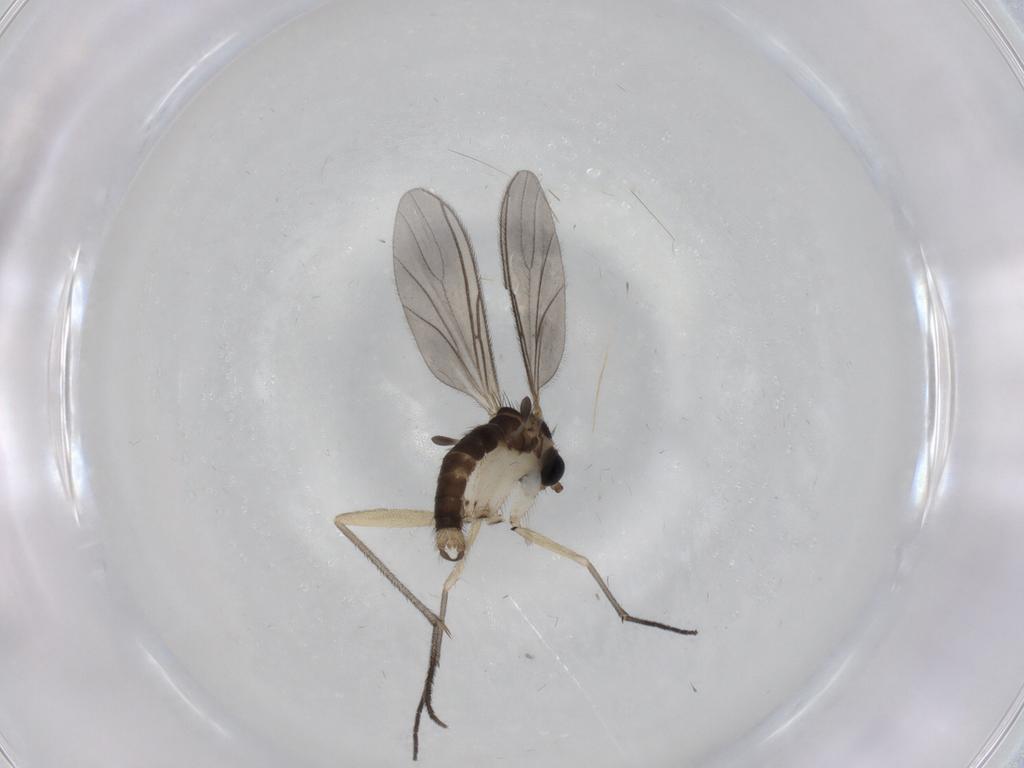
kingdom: Animalia
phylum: Arthropoda
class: Insecta
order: Diptera
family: Sciaridae
